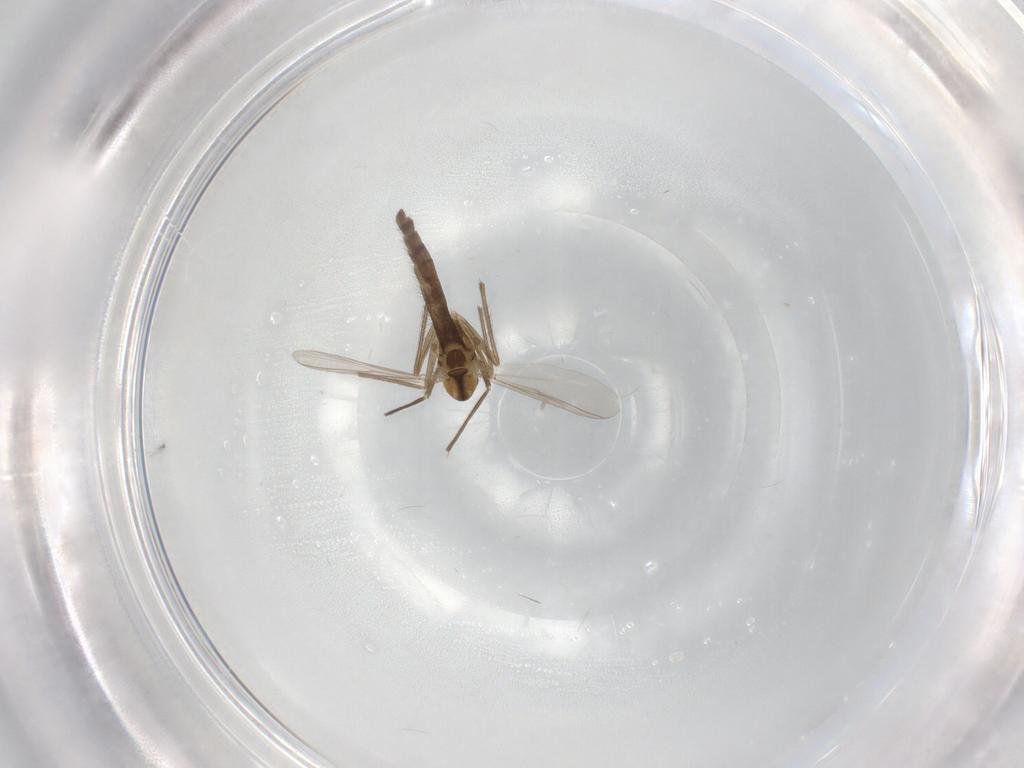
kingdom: Animalia
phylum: Arthropoda
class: Insecta
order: Diptera
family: Chironomidae
